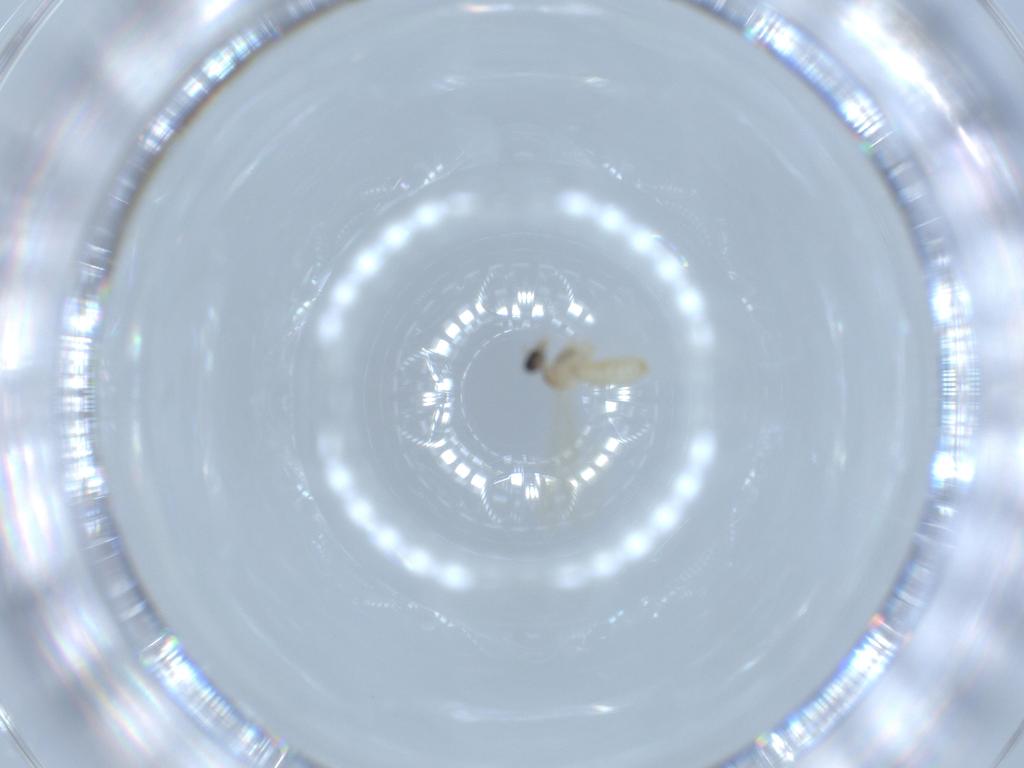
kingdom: Animalia
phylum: Arthropoda
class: Insecta
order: Diptera
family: Cecidomyiidae
